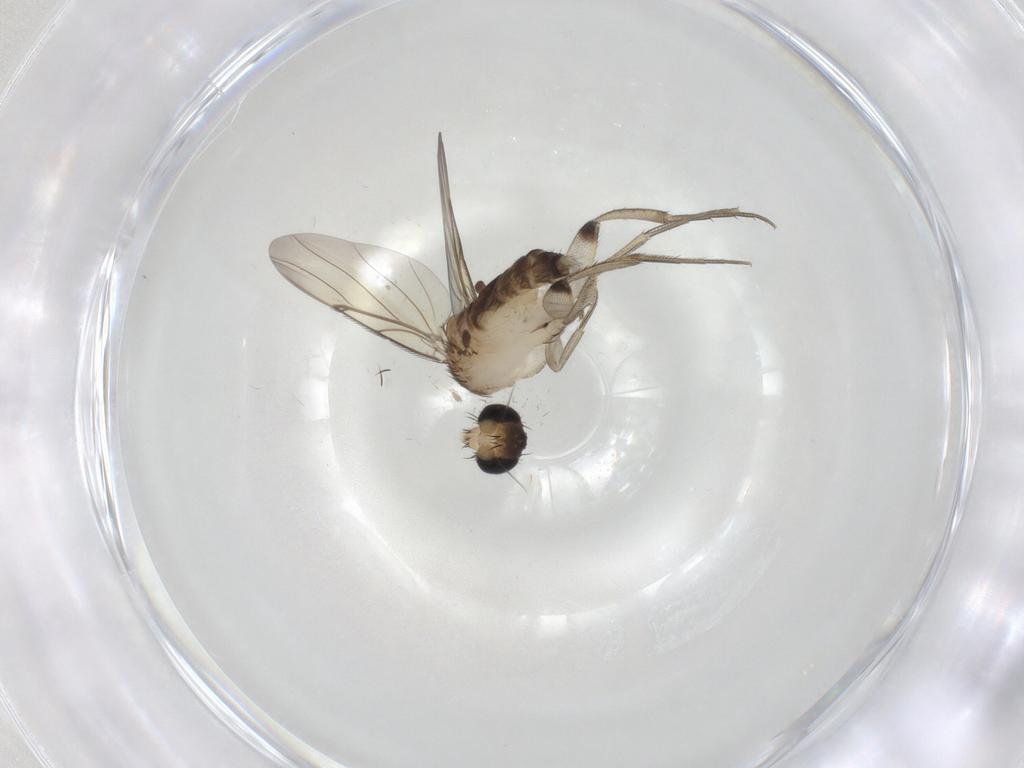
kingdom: Animalia
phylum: Arthropoda
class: Insecta
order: Diptera
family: Phoridae
